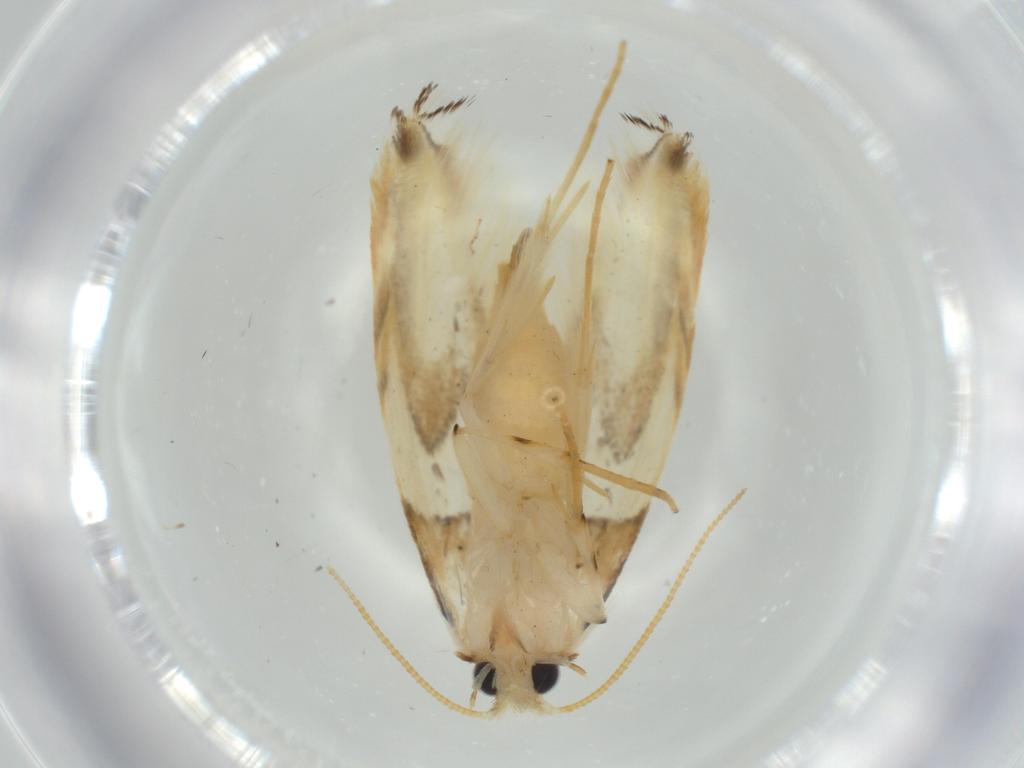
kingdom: Animalia
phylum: Arthropoda
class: Insecta
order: Lepidoptera
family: Tineidae
